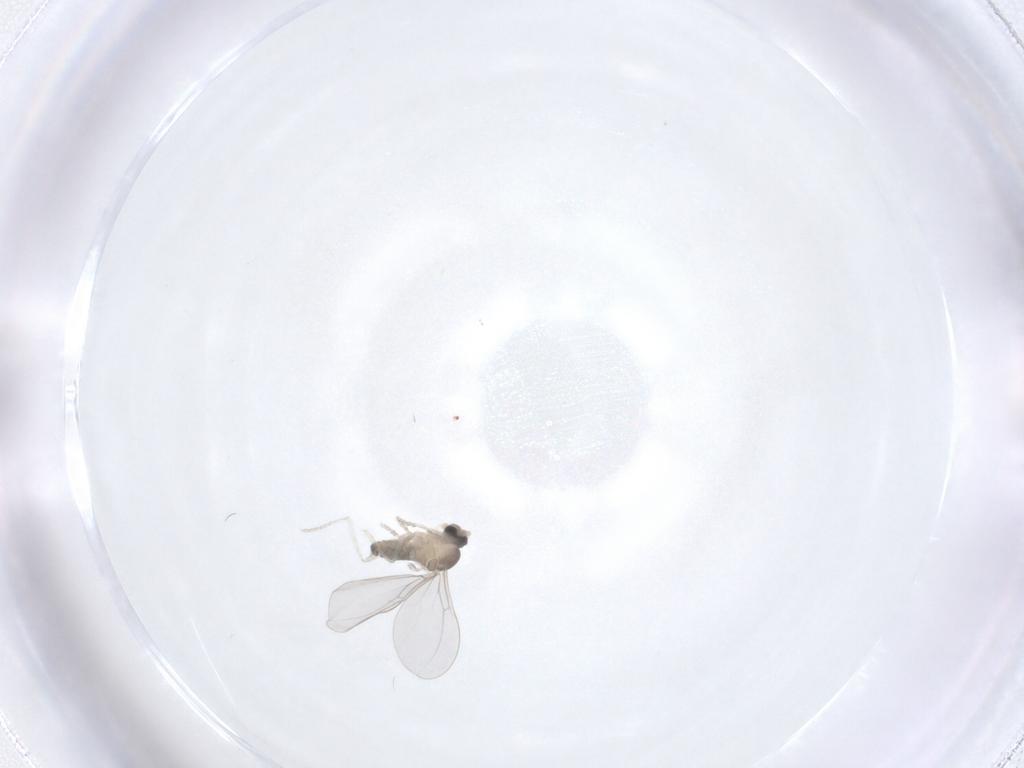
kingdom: Animalia
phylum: Arthropoda
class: Insecta
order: Diptera
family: Cecidomyiidae
